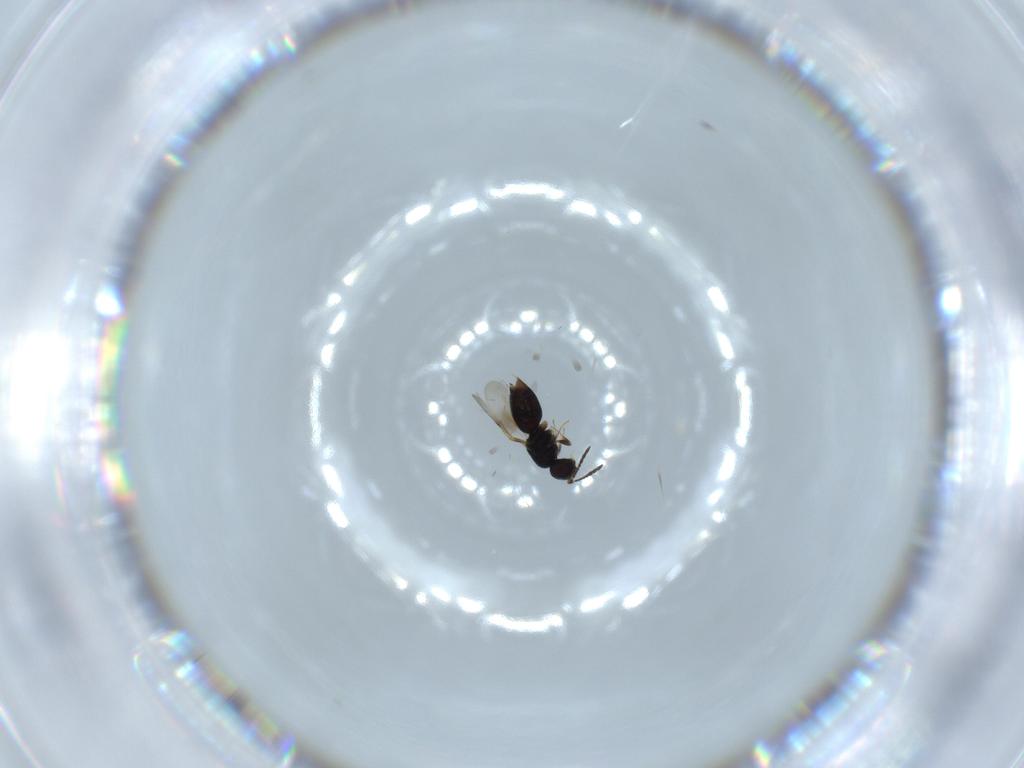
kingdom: Animalia
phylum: Arthropoda
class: Insecta
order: Hymenoptera
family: Ceraphronidae
